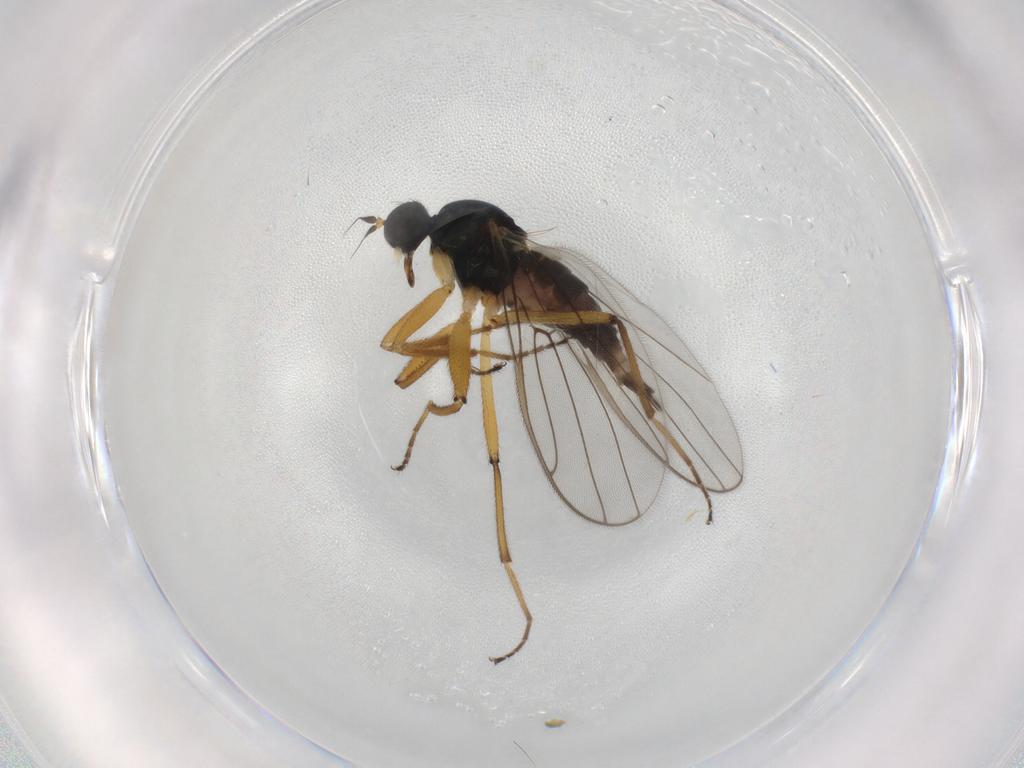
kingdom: Animalia
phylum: Arthropoda
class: Insecta
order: Diptera
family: Hybotidae
